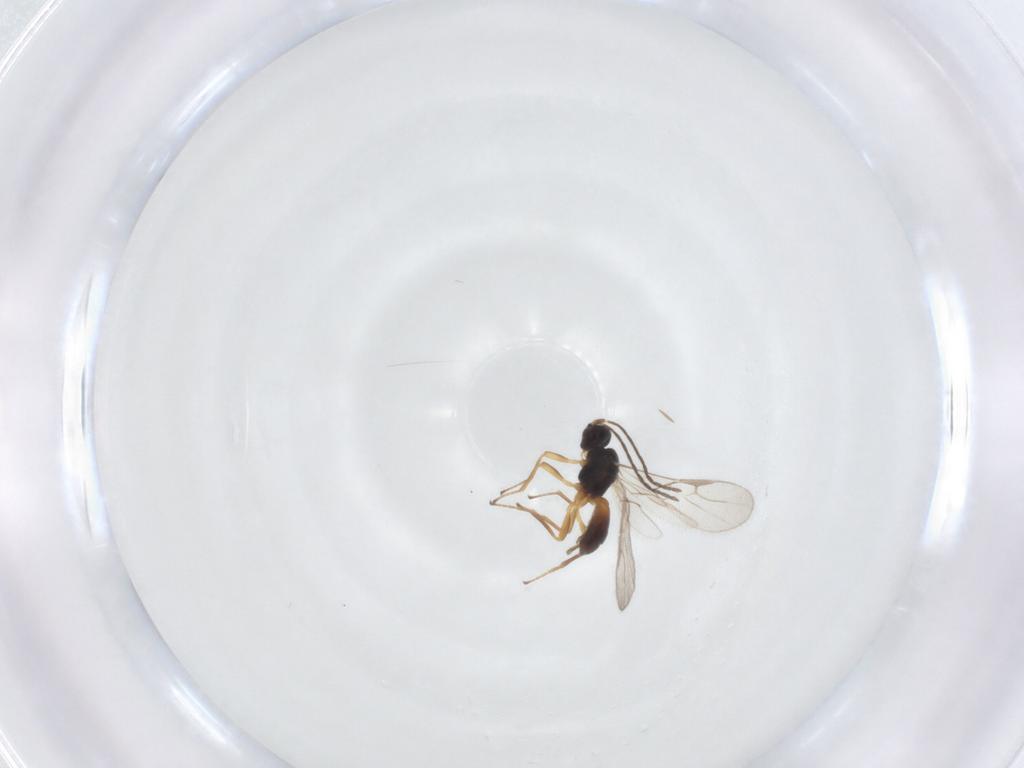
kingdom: Animalia
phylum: Arthropoda
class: Insecta
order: Hymenoptera
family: Braconidae
